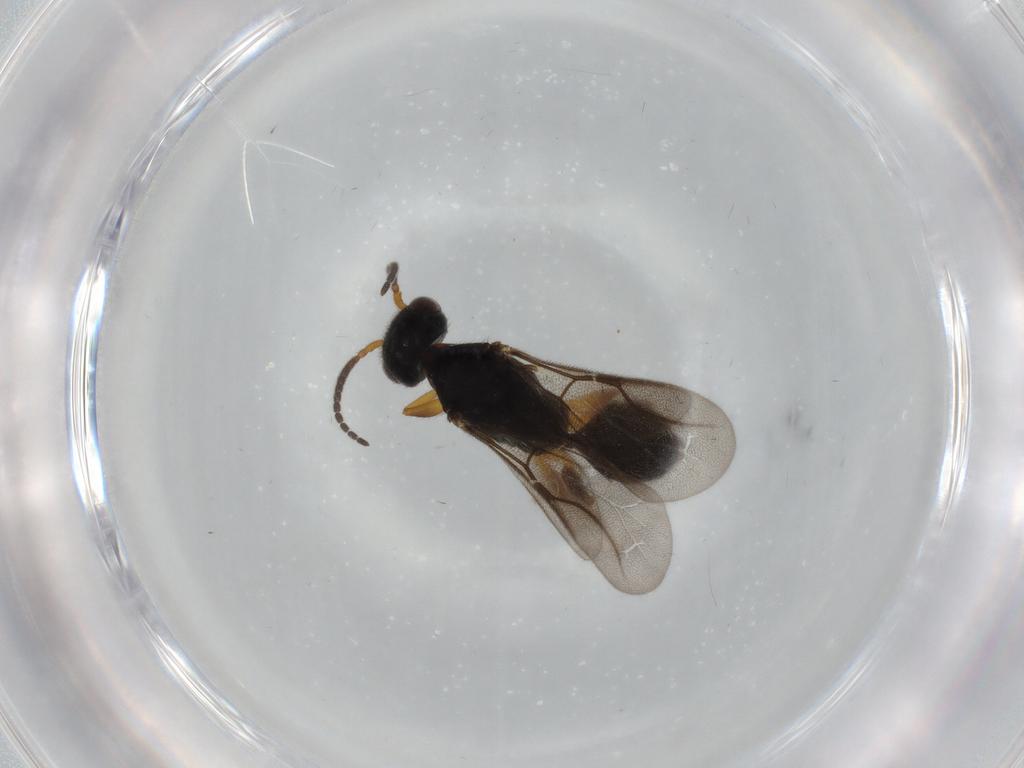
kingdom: Animalia
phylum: Arthropoda
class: Insecta
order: Hymenoptera
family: Bethylidae
